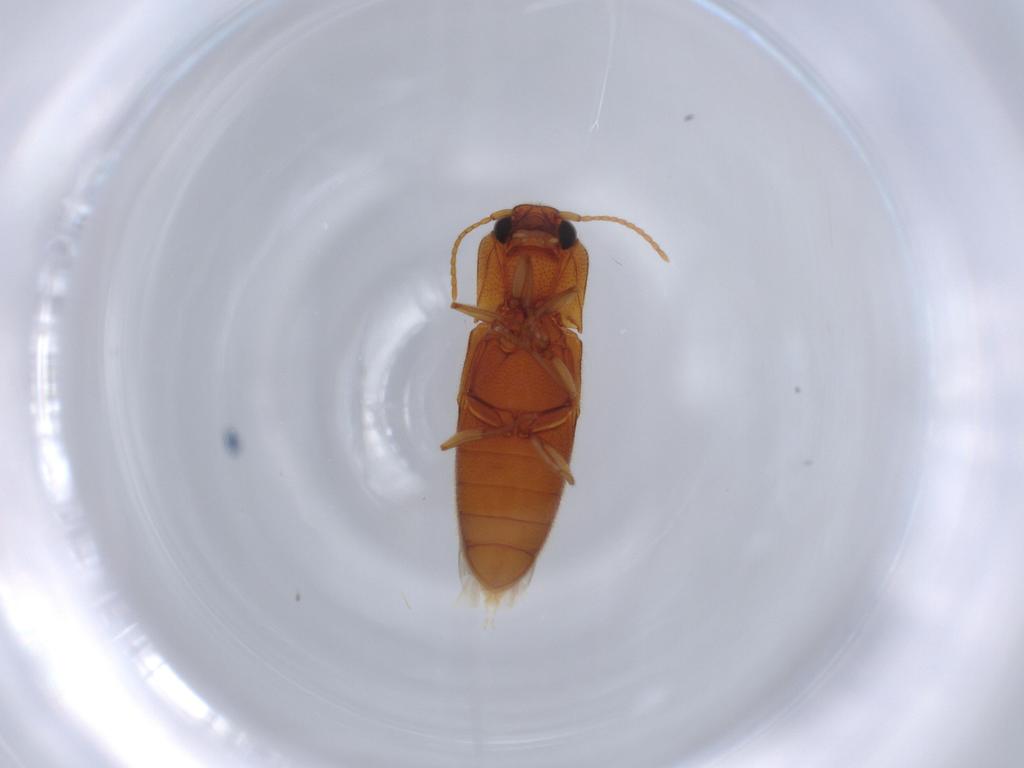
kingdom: Animalia
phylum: Arthropoda
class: Insecta
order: Coleoptera
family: Elateridae
